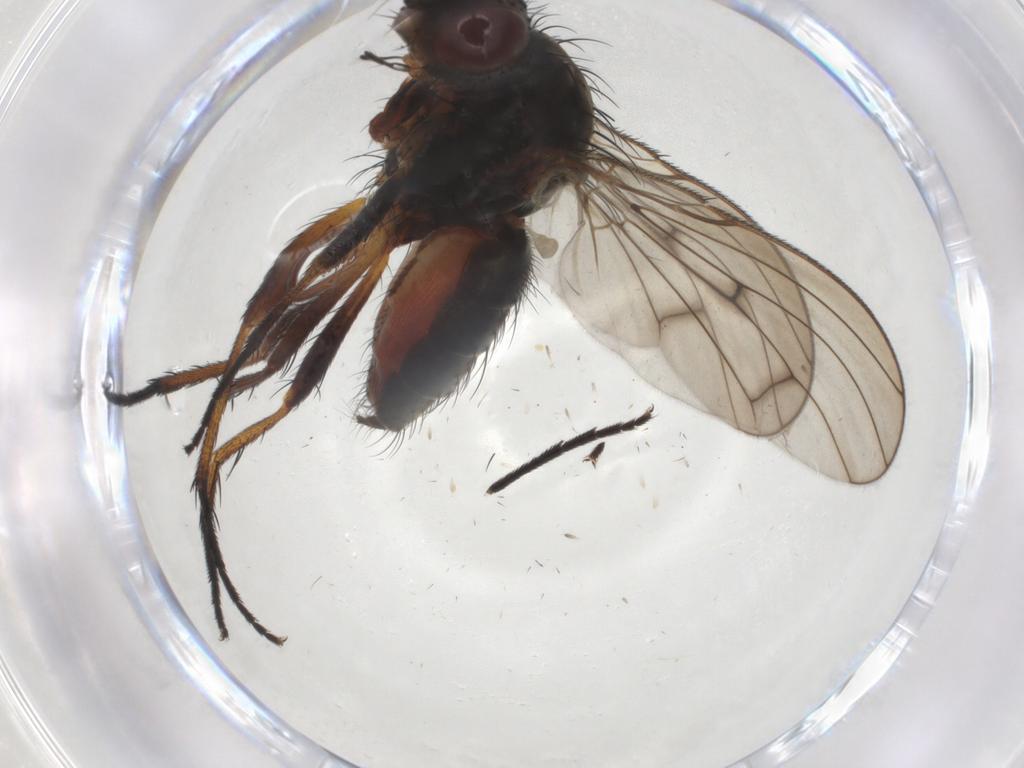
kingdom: Animalia
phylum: Arthropoda
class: Insecta
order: Diptera
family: Anthomyiidae
